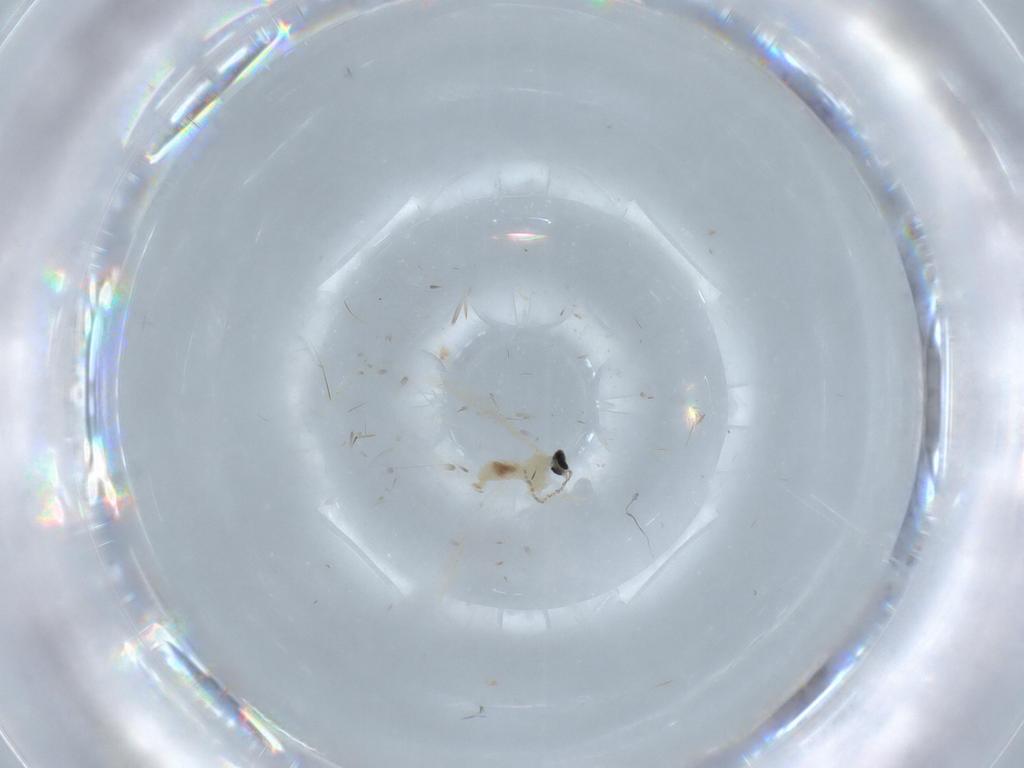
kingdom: Animalia
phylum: Arthropoda
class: Insecta
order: Diptera
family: Cecidomyiidae
